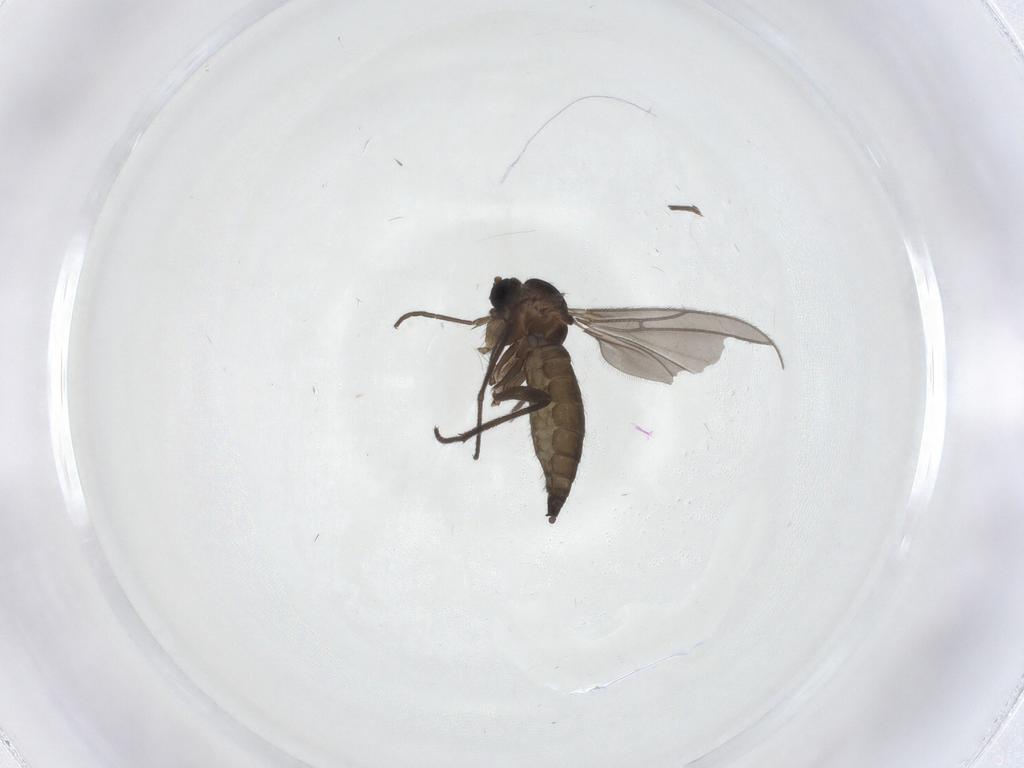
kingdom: Animalia
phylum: Arthropoda
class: Insecta
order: Diptera
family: Sciaridae
